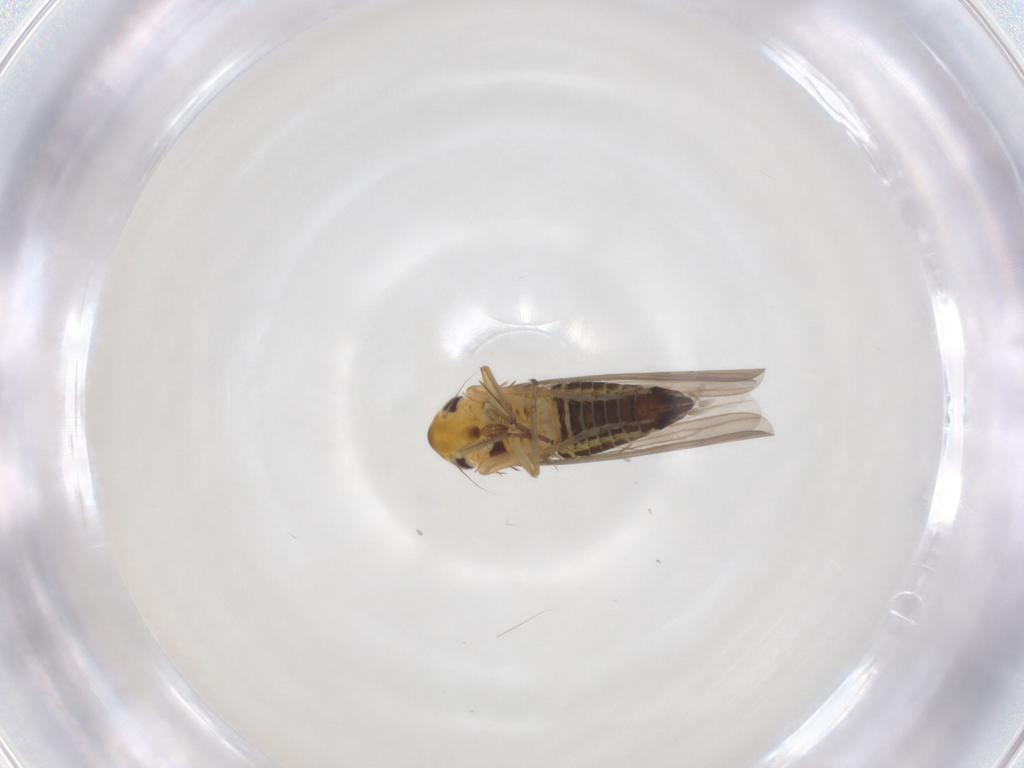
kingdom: Animalia
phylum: Arthropoda
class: Insecta
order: Hemiptera
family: Cicadellidae
